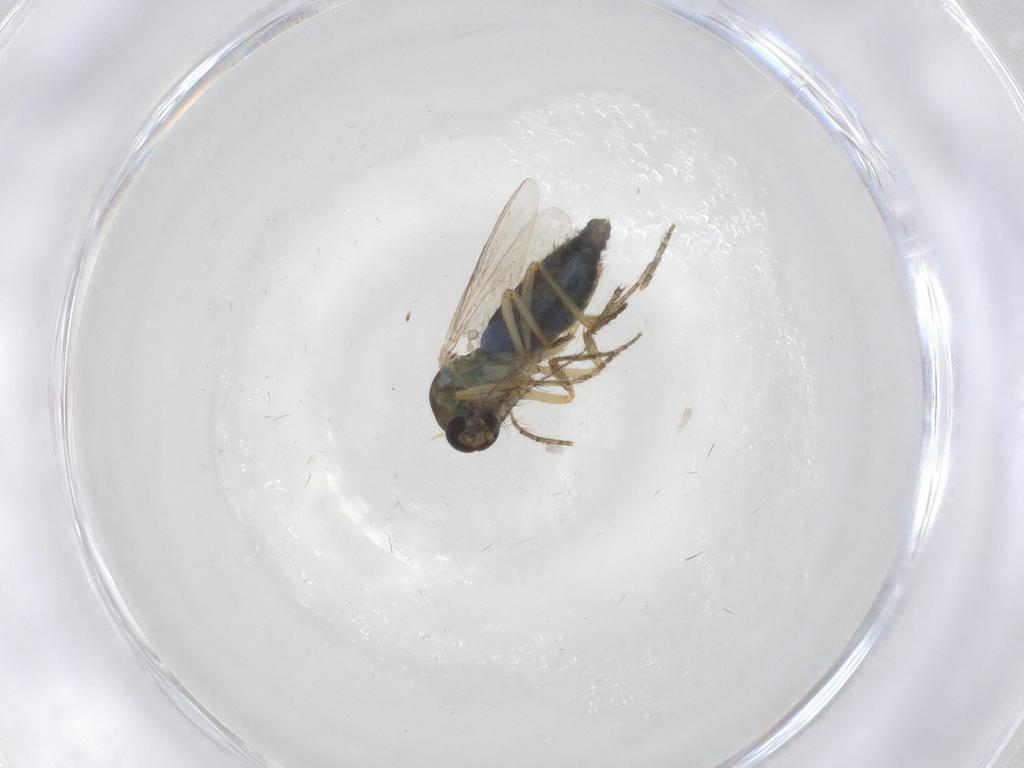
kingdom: Animalia
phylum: Arthropoda
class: Insecta
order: Diptera
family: Ceratopogonidae
